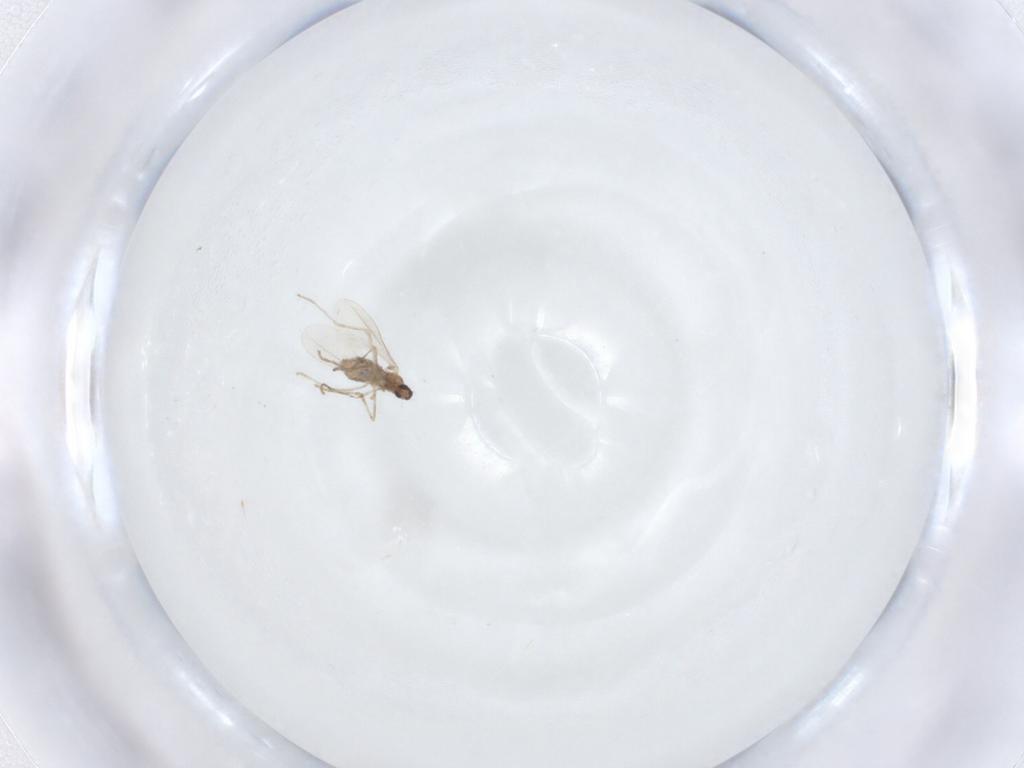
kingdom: Animalia
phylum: Arthropoda
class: Insecta
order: Diptera
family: Cecidomyiidae
